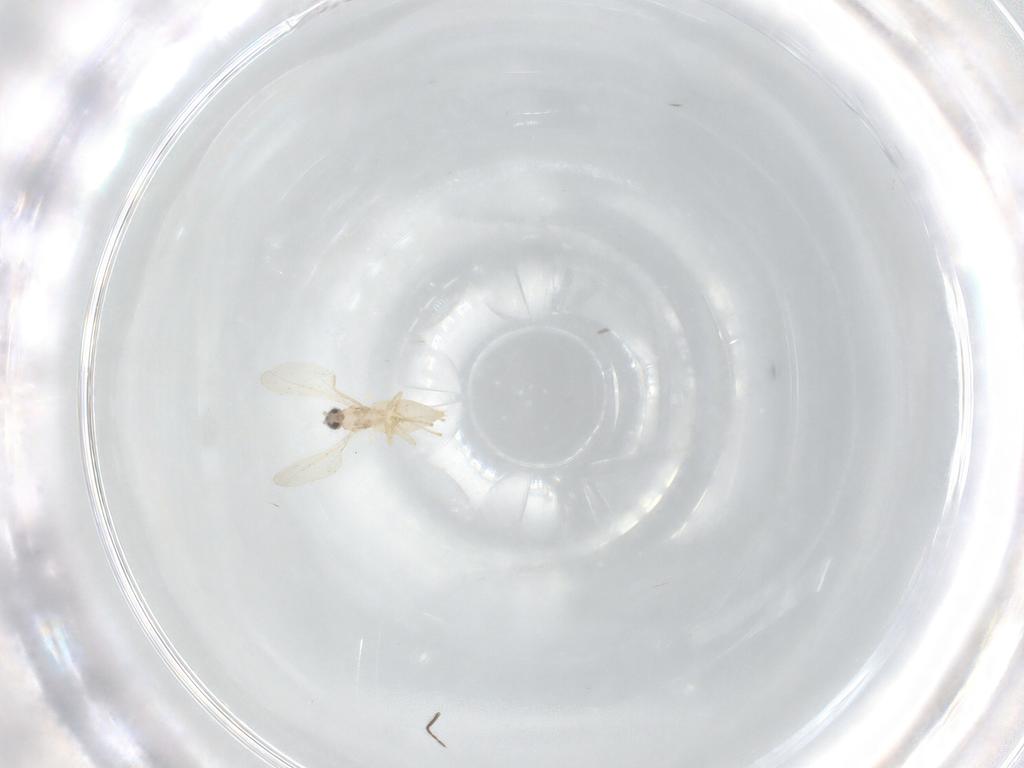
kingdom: Animalia
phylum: Arthropoda
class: Insecta
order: Diptera
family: Cecidomyiidae
